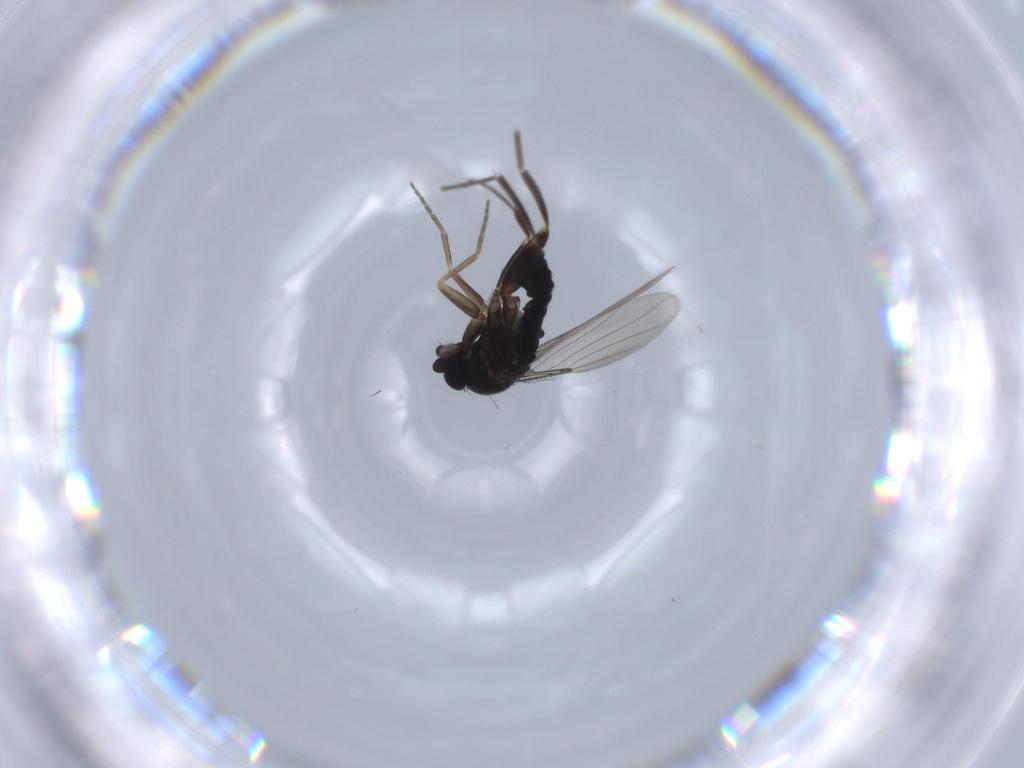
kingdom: Animalia
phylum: Arthropoda
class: Insecta
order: Diptera
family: Phoridae
